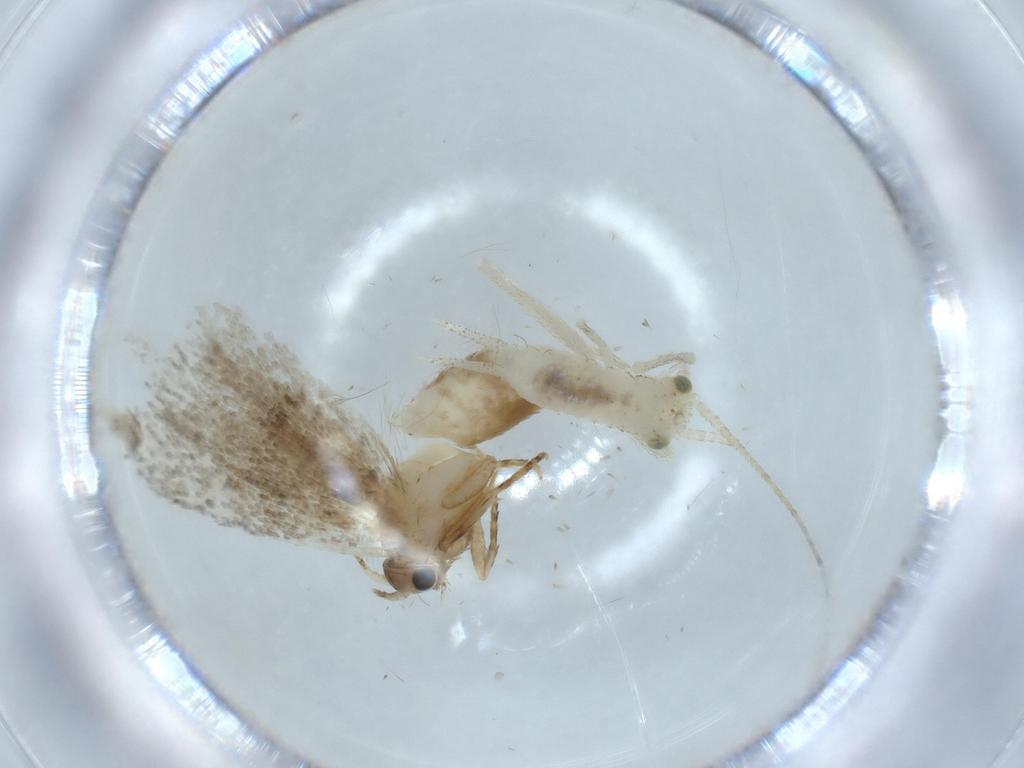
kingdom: Animalia
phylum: Arthropoda
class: Insecta
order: Lepidoptera
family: Tineidae
